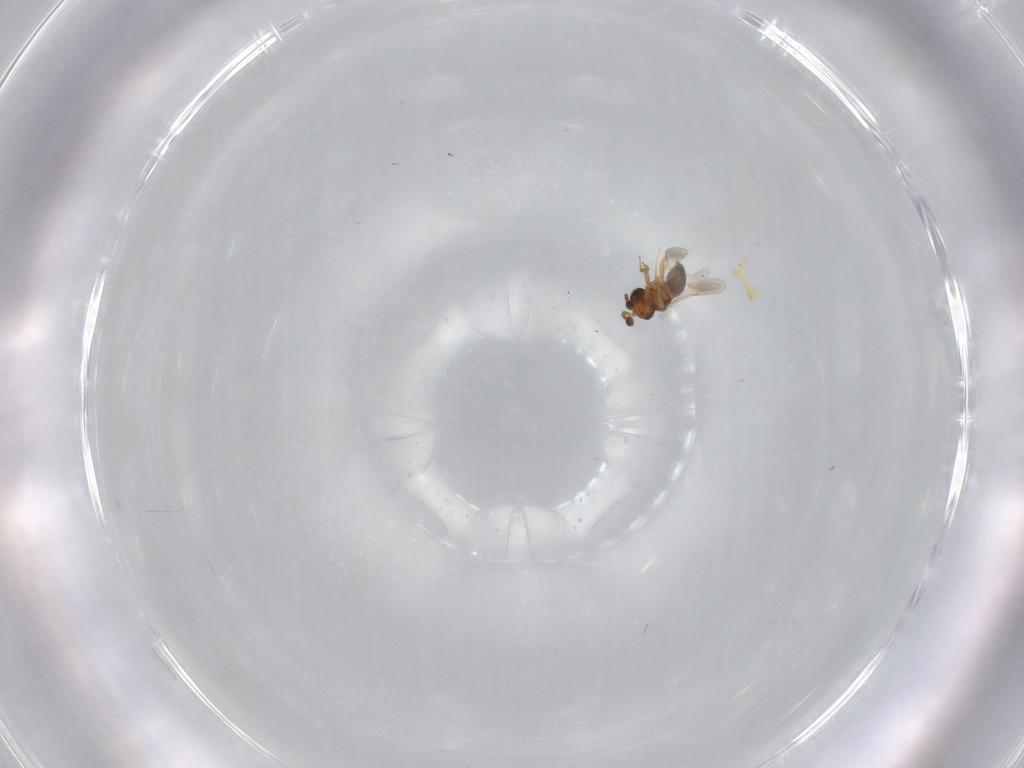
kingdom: Animalia
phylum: Arthropoda
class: Insecta
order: Hymenoptera
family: Scelionidae
